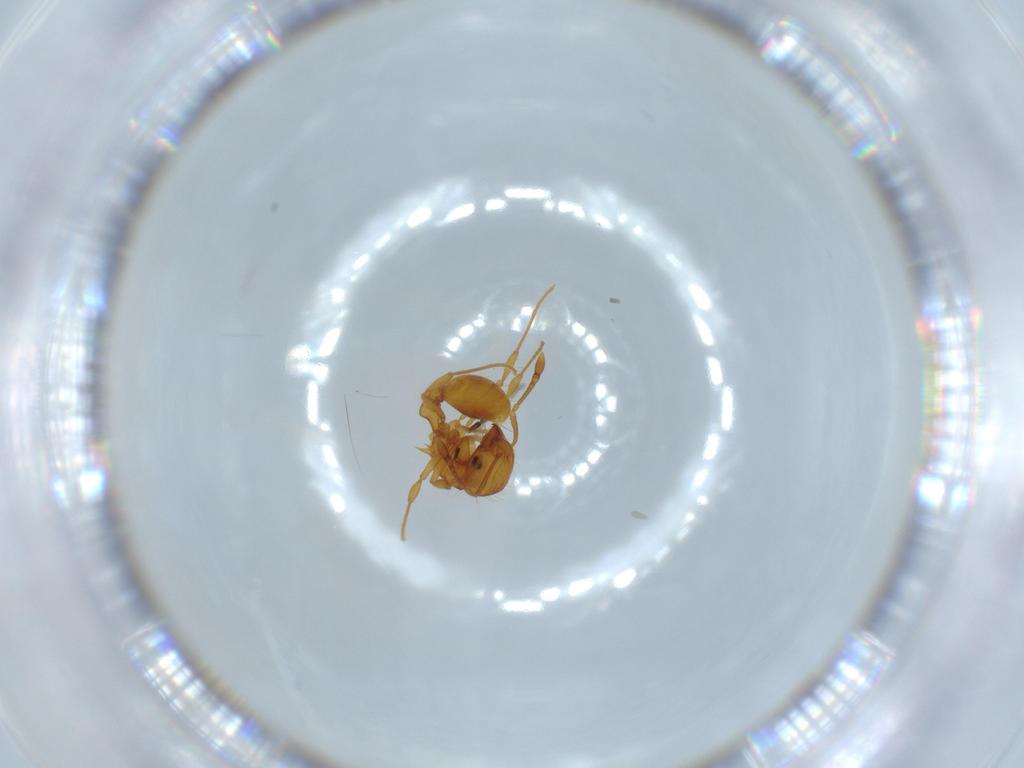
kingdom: Animalia
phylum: Arthropoda
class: Insecta
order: Hymenoptera
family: Formicidae
